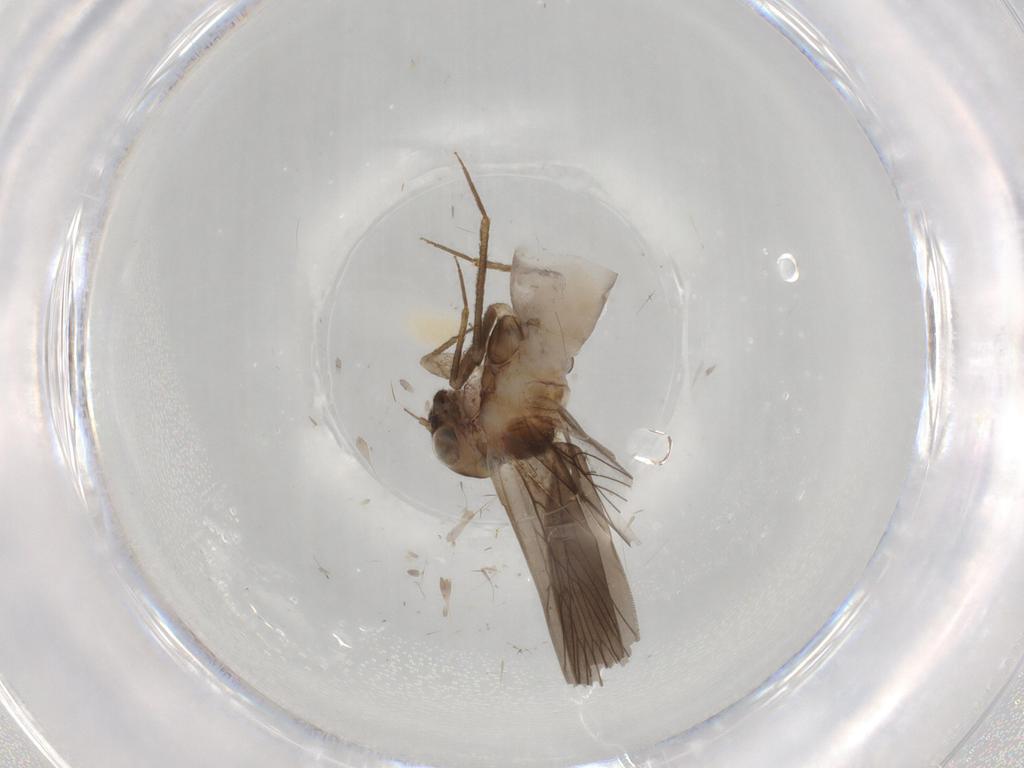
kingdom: Animalia
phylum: Arthropoda
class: Insecta
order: Psocodea
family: Lepidopsocidae
